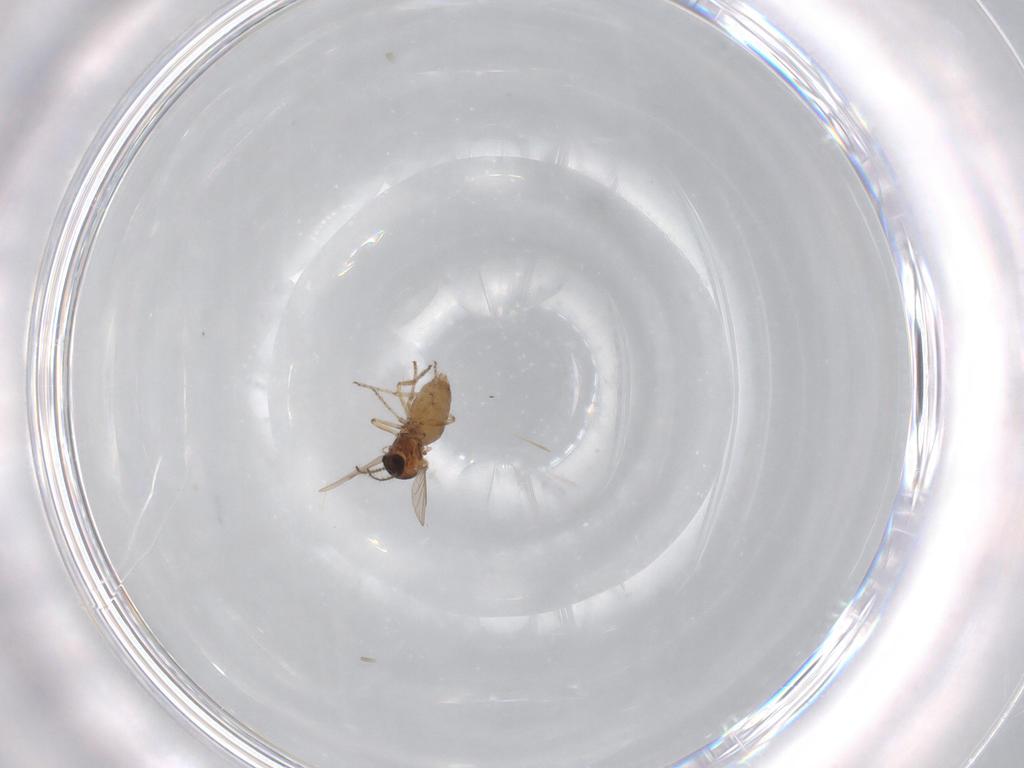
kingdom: Animalia
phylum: Arthropoda
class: Insecta
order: Diptera
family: Ceratopogonidae
